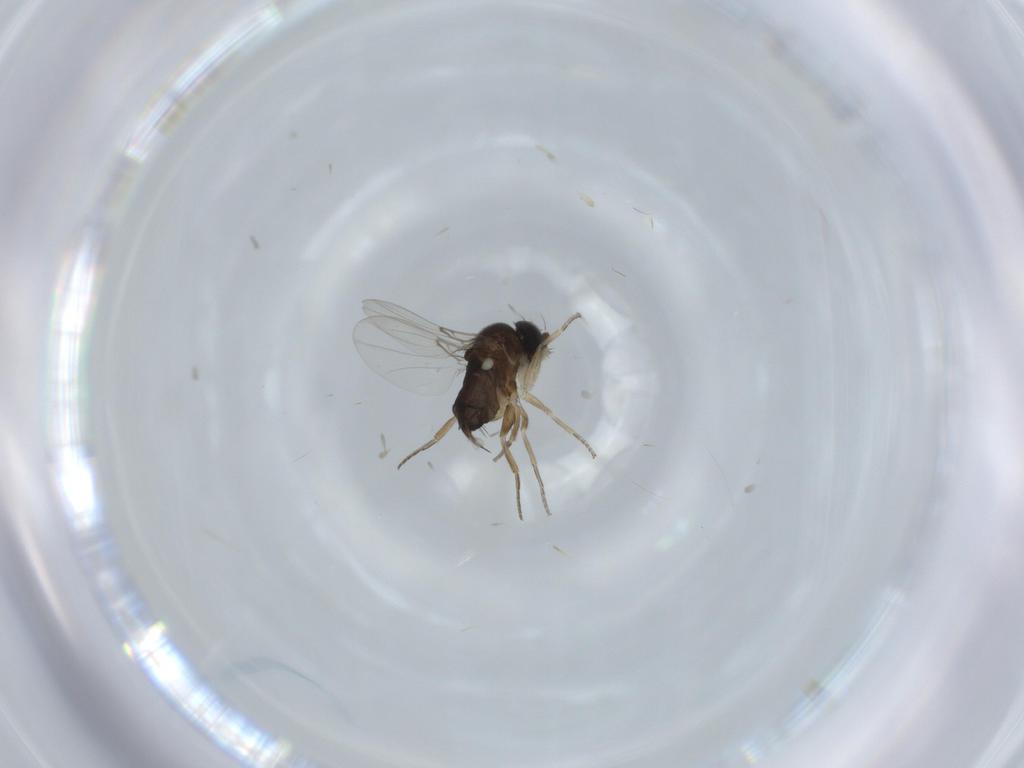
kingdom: Animalia
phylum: Arthropoda
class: Insecta
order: Diptera
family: Phoridae
